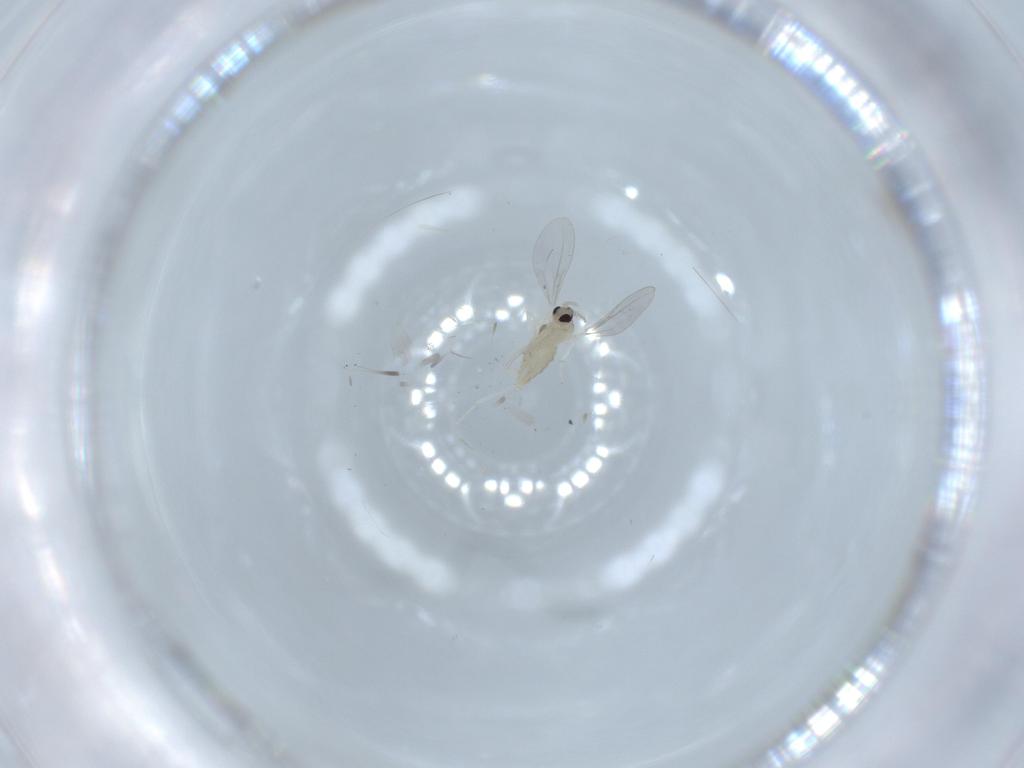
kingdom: Animalia
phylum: Arthropoda
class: Insecta
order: Diptera
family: Cecidomyiidae
